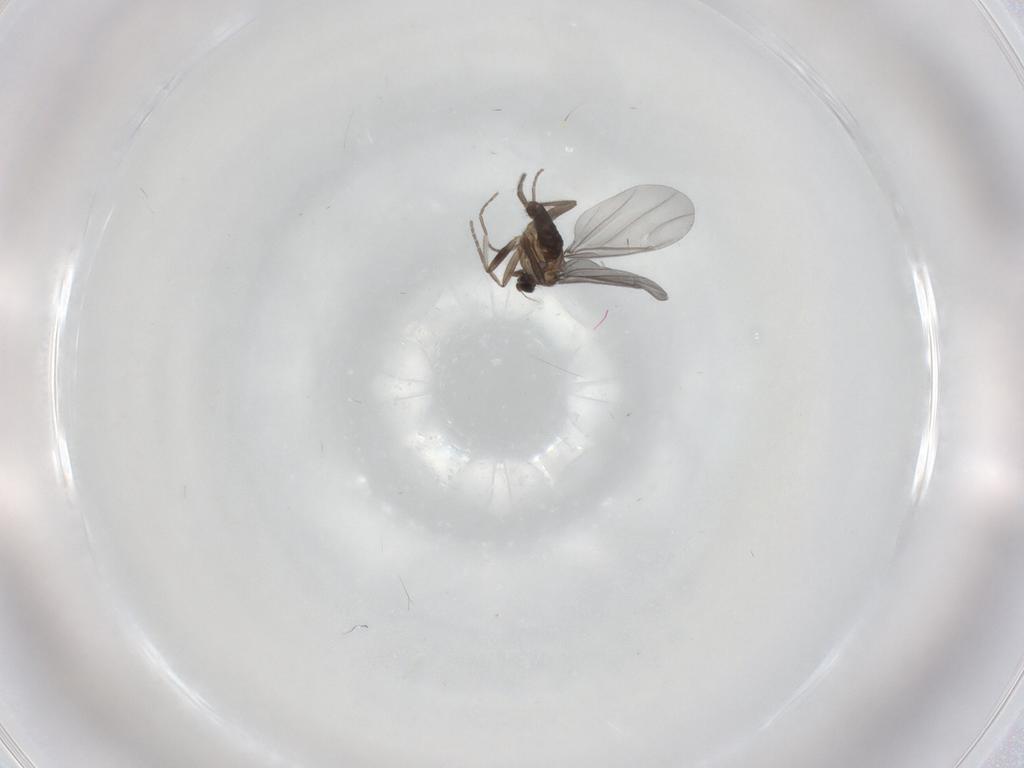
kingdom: Animalia
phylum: Arthropoda
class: Insecta
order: Diptera
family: Phoridae
